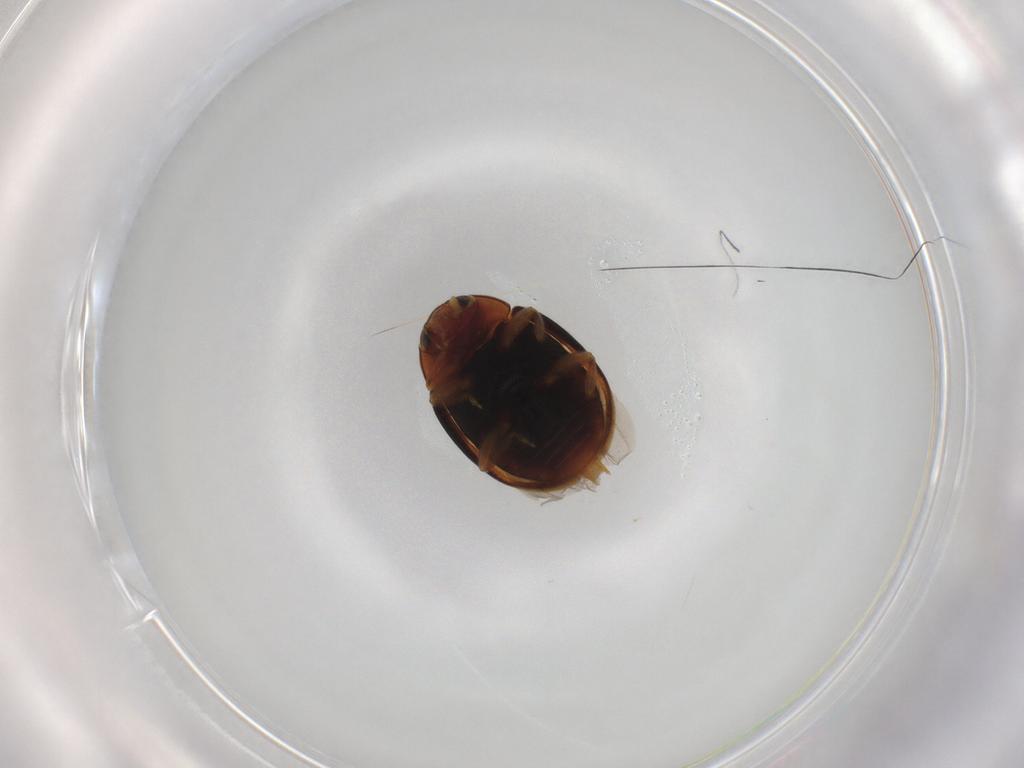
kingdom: Animalia
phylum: Arthropoda
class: Insecta
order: Coleoptera
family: Coccinellidae
